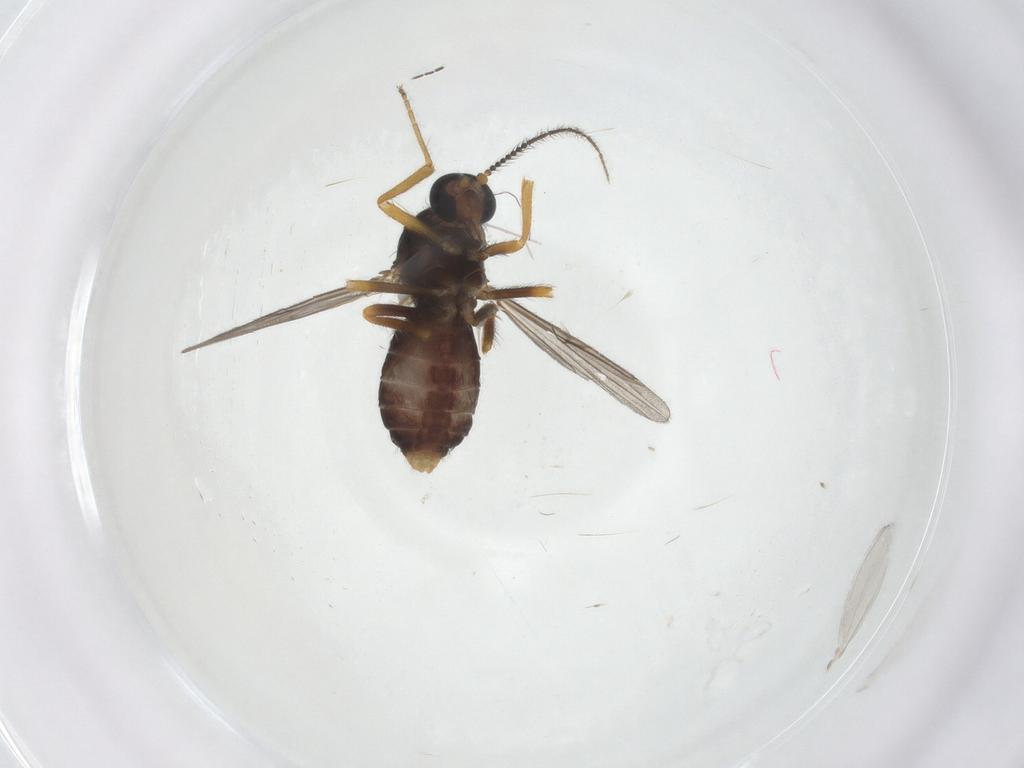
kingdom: Animalia
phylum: Arthropoda
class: Insecta
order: Diptera
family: Ceratopogonidae
